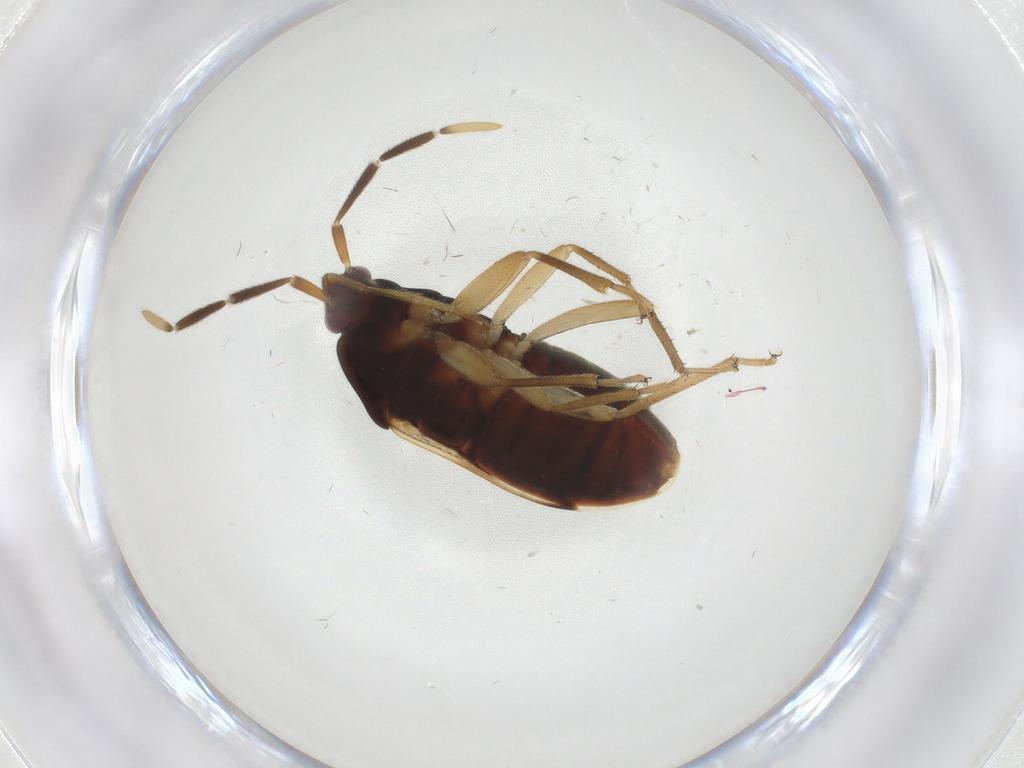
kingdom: Animalia
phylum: Arthropoda
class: Insecta
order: Hemiptera
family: Rhyparochromidae
